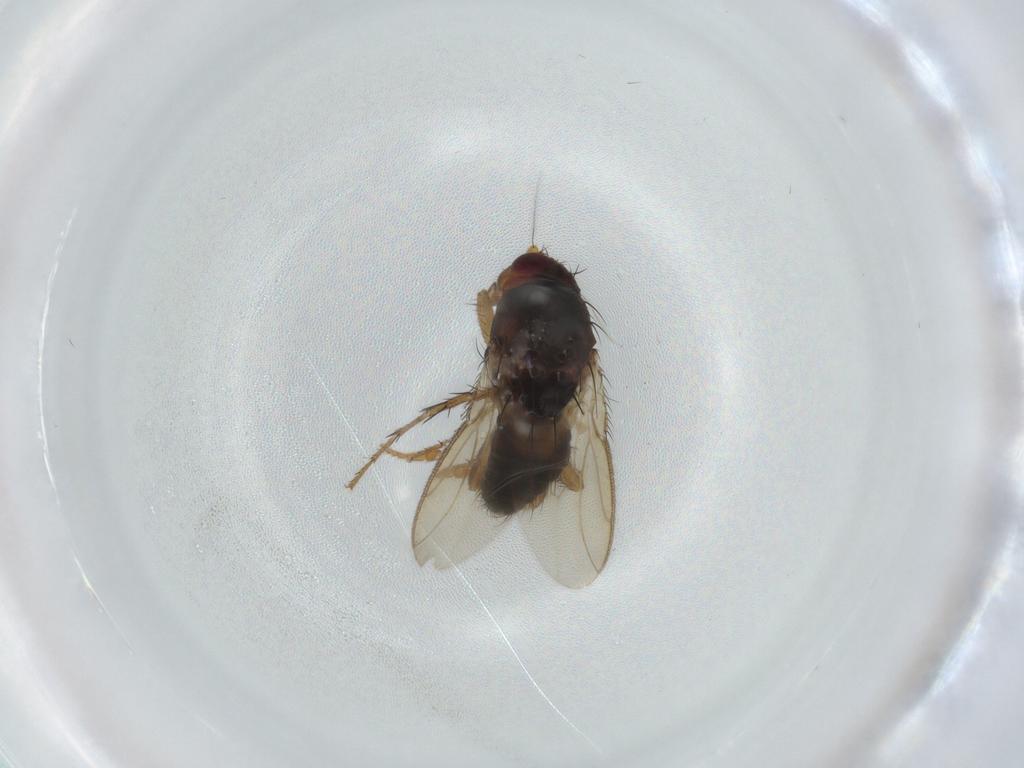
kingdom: Animalia
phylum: Arthropoda
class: Insecta
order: Diptera
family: Sphaeroceridae
